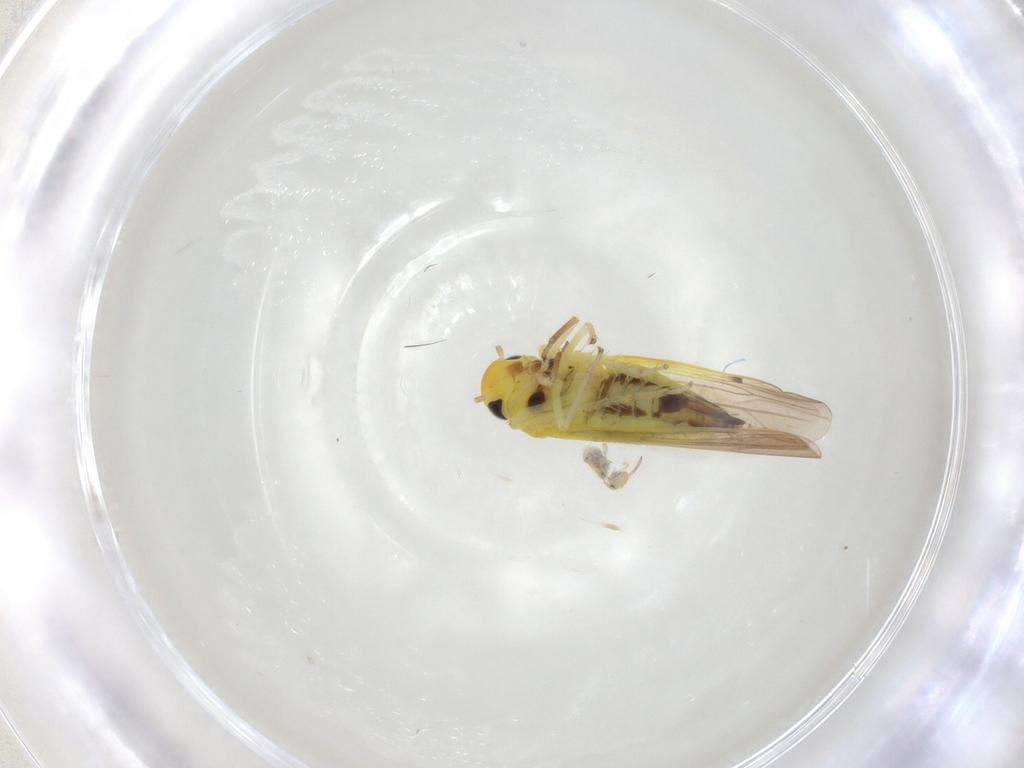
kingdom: Animalia
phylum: Arthropoda
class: Insecta
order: Hemiptera
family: Cicadellidae
